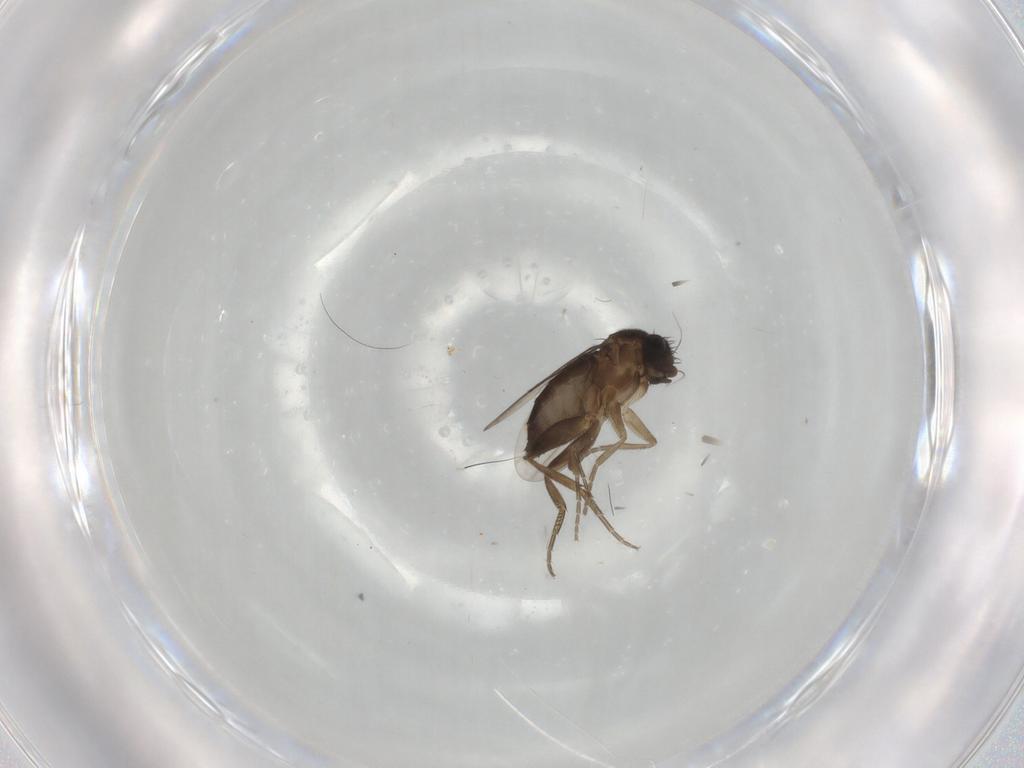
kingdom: Animalia
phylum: Arthropoda
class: Insecta
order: Diptera
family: Phoridae
